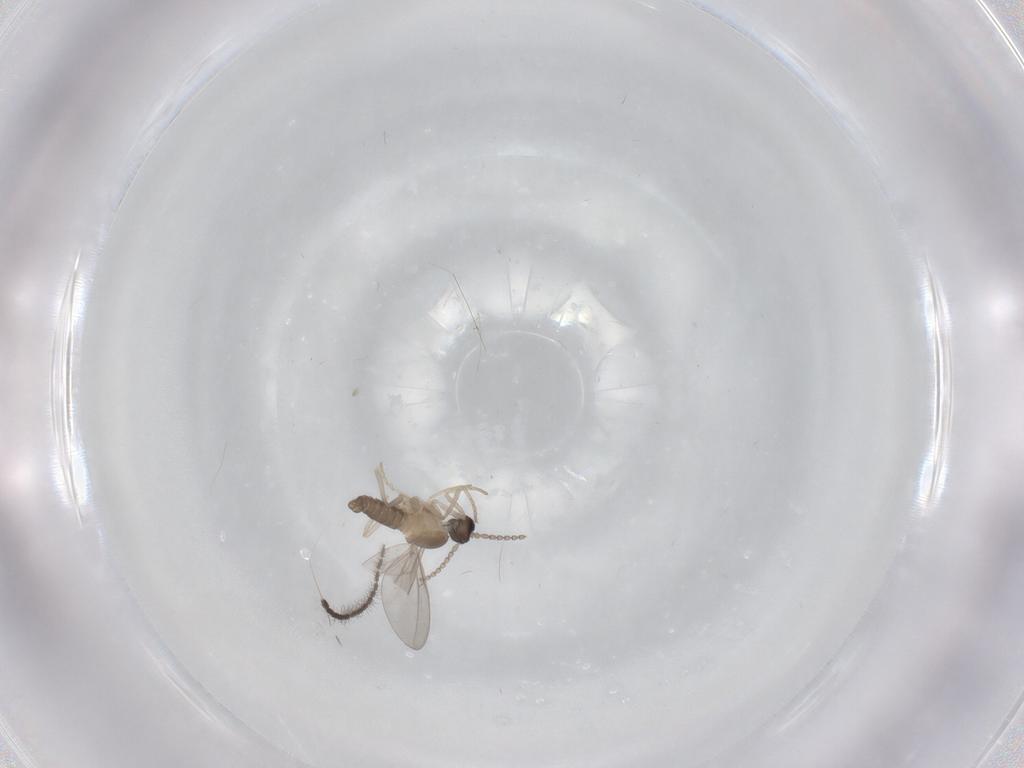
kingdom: Animalia
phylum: Arthropoda
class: Insecta
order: Diptera
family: Cecidomyiidae
